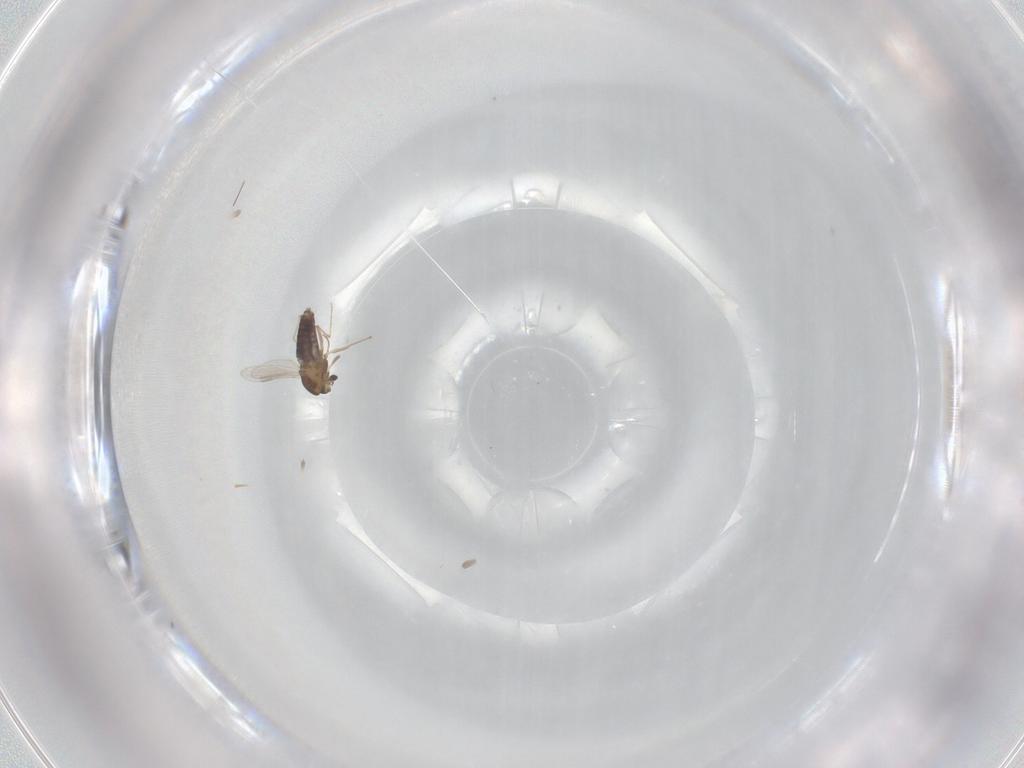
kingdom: Animalia
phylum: Arthropoda
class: Insecta
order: Diptera
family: Chironomidae
